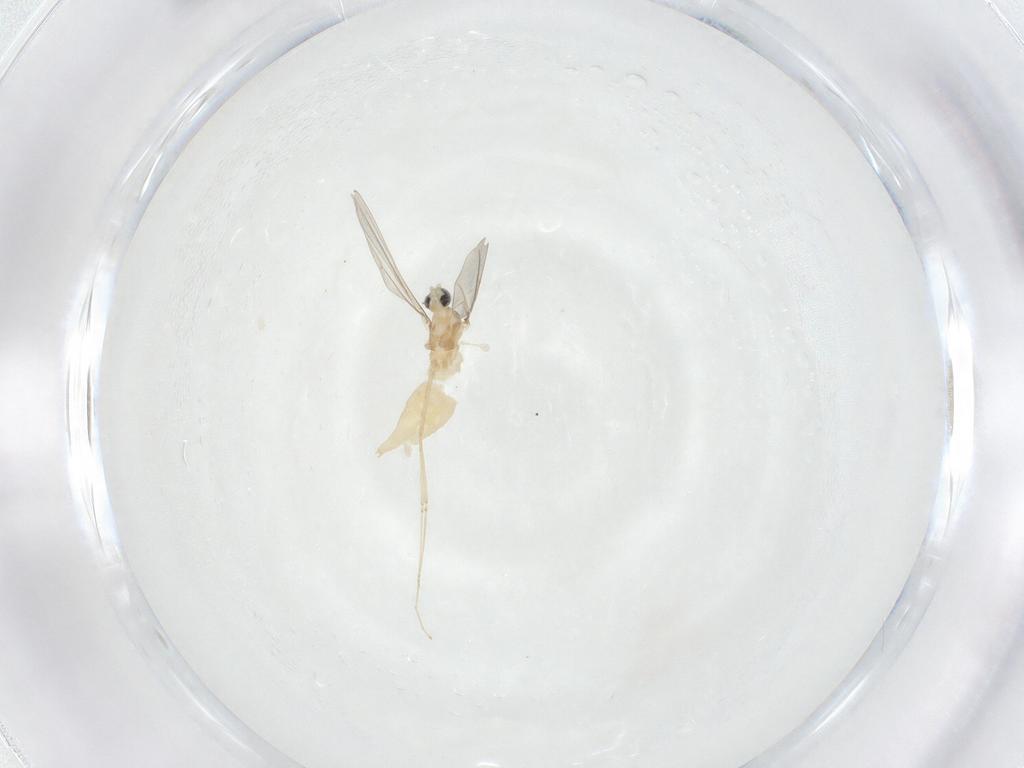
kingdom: Animalia
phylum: Arthropoda
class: Insecta
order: Diptera
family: Cecidomyiidae
